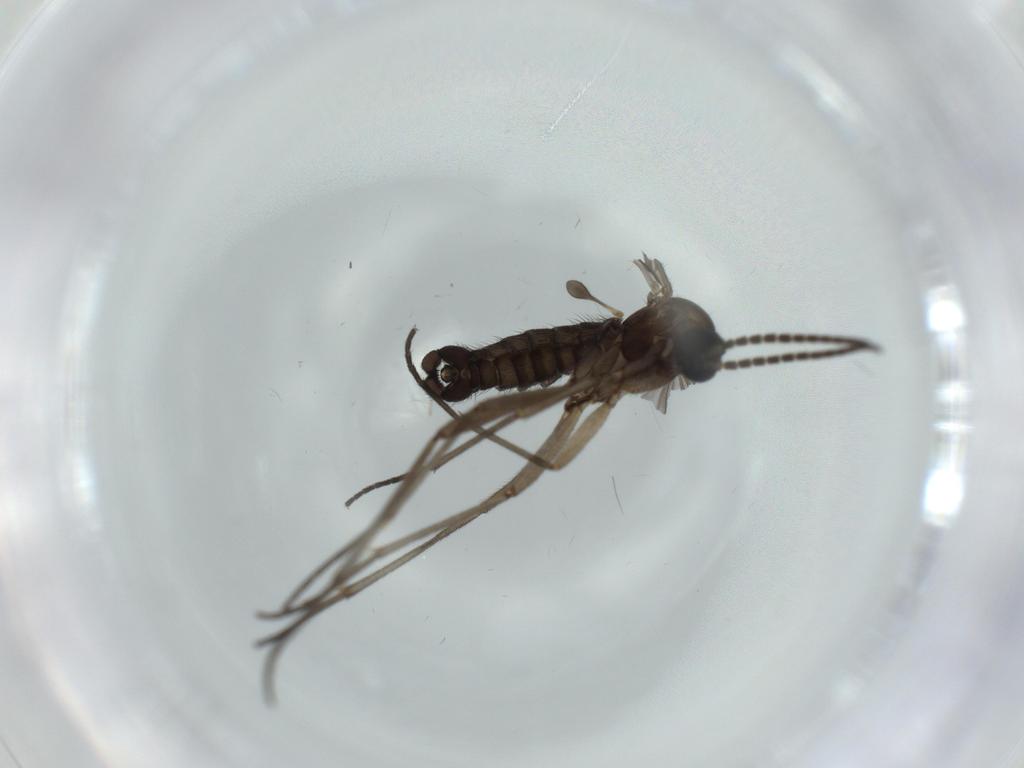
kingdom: Animalia
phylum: Arthropoda
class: Insecta
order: Diptera
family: Sciaridae
